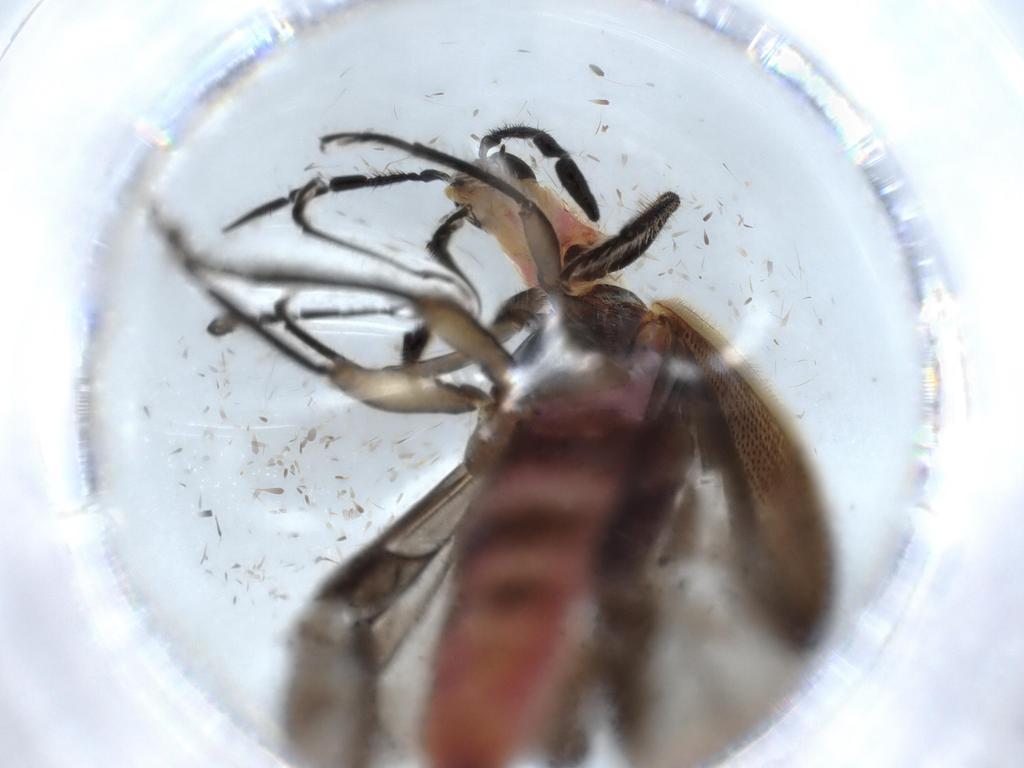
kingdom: Animalia
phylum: Arthropoda
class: Insecta
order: Coleoptera
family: Cleridae
